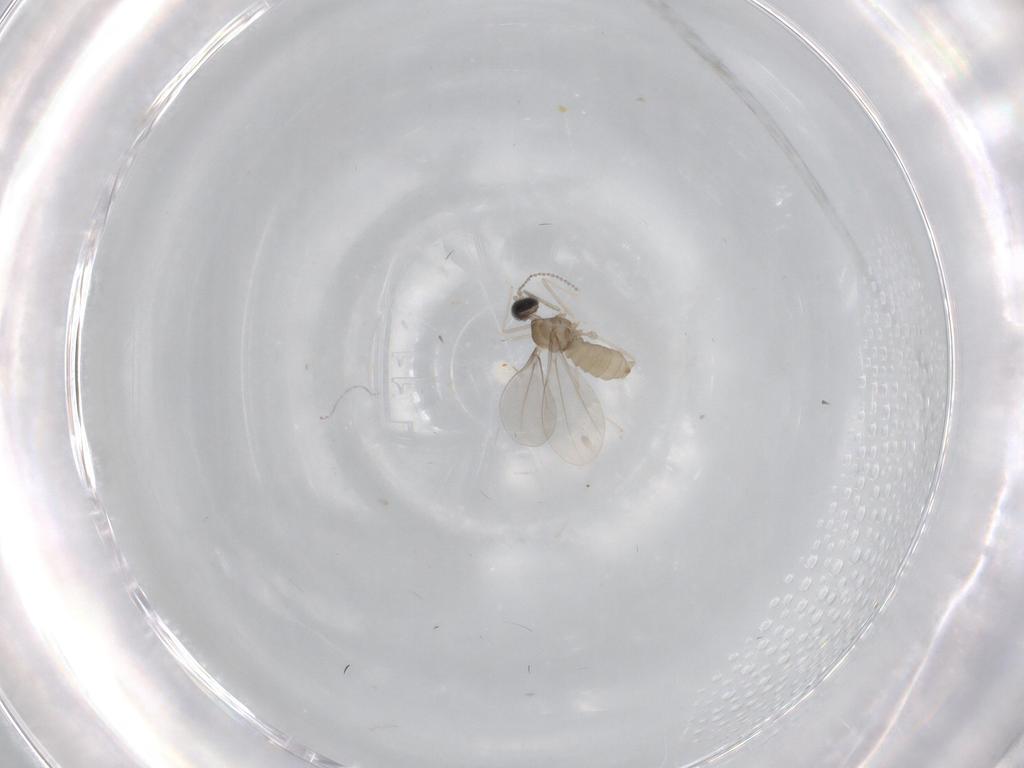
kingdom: Animalia
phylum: Arthropoda
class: Insecta
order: Diptera
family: Cecidomyiidae
